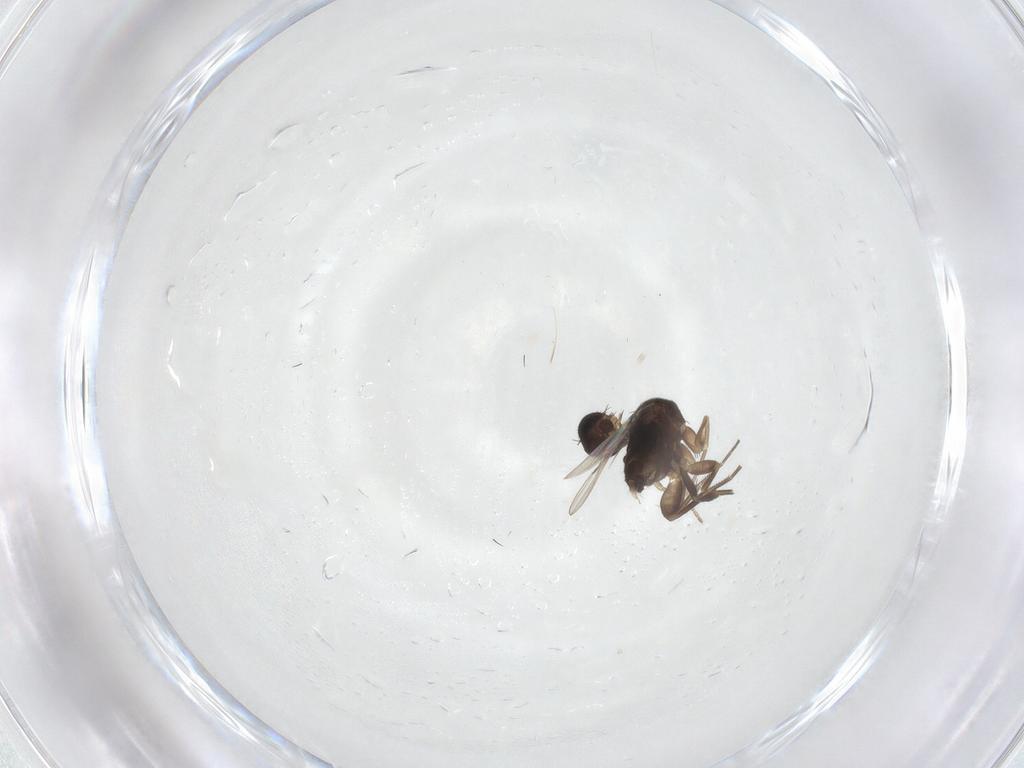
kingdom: Animalia
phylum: Arthropoda
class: Insecta
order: Diptera
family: Phoridae
